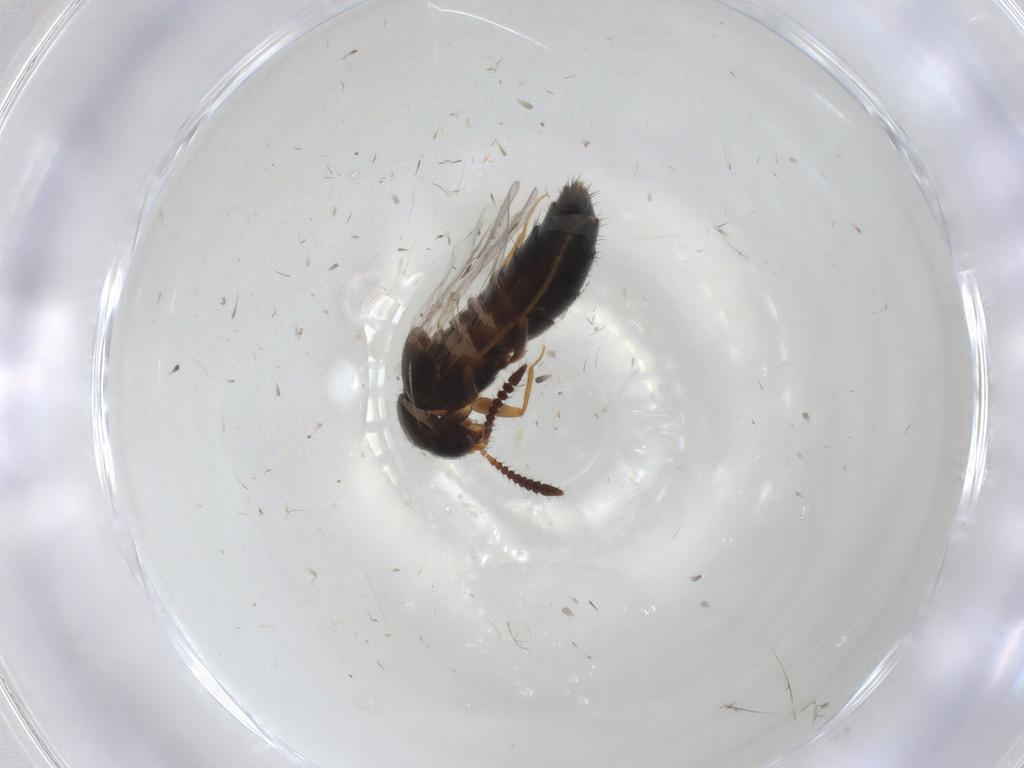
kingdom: Animalia
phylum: Arthropoda
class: Insecta
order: Coleoptera
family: Staphylinidae
